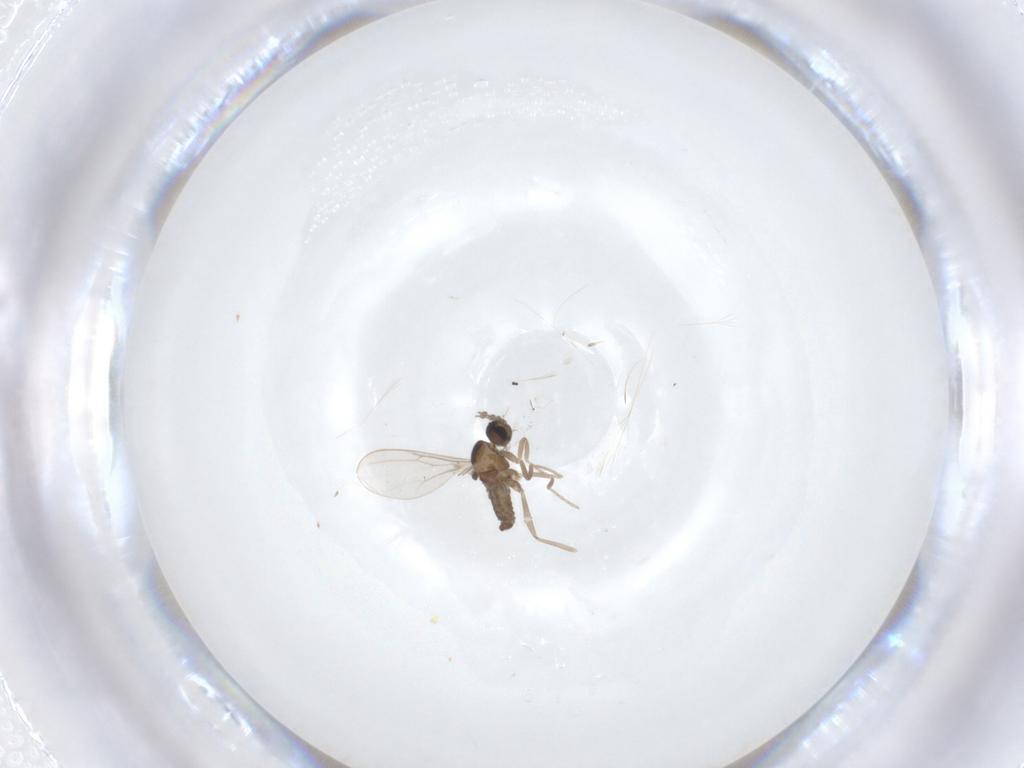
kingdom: Animalia
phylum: Arthropoda
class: Insecta
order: Diptera
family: Cecidomyiidae
